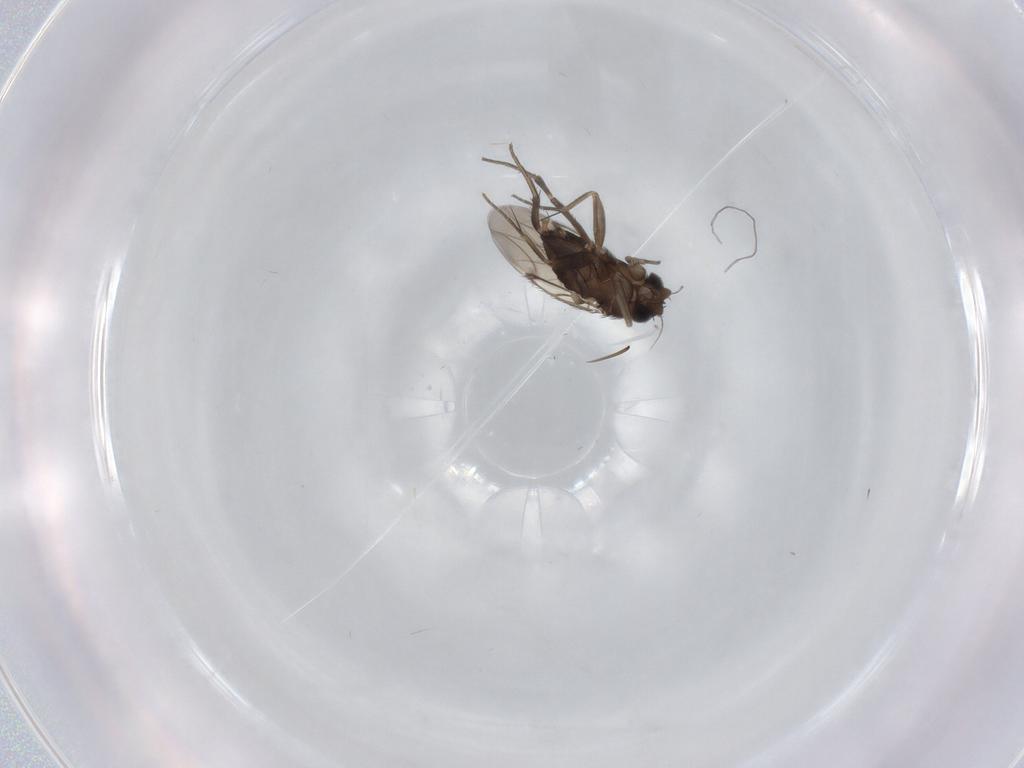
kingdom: Animalia
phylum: Arthropoda
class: Insecta
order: Diptera
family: Phoridae
